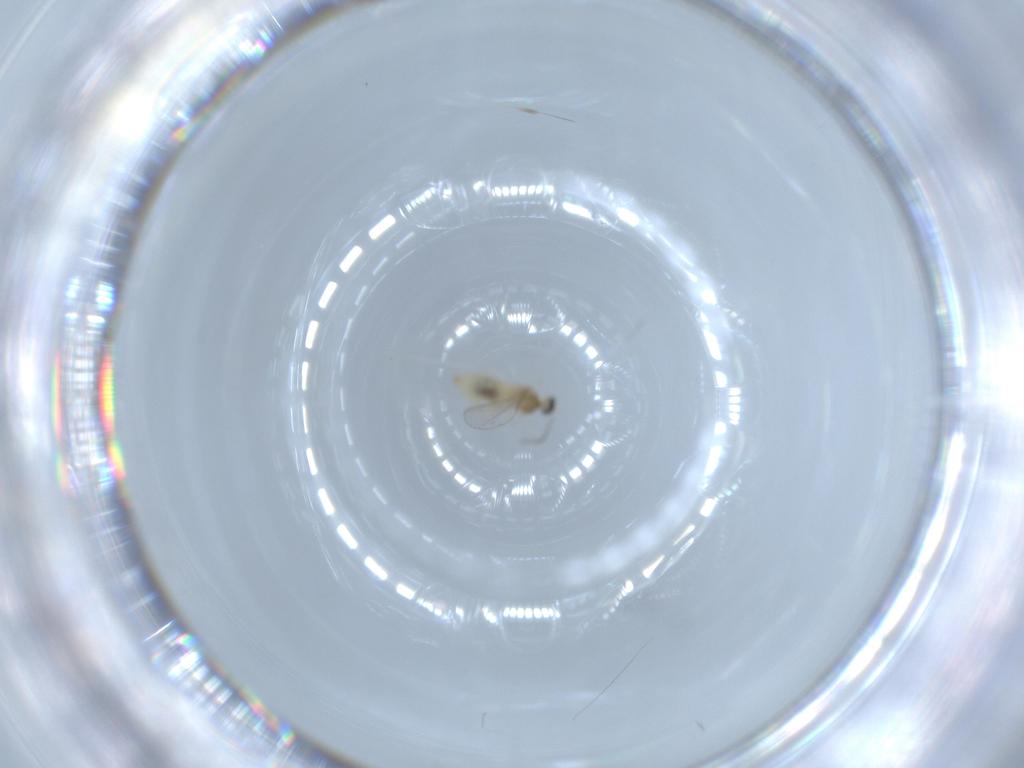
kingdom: Animalia
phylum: Arthropoda
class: Insecta
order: Diptera
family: Cecidomyiidae
